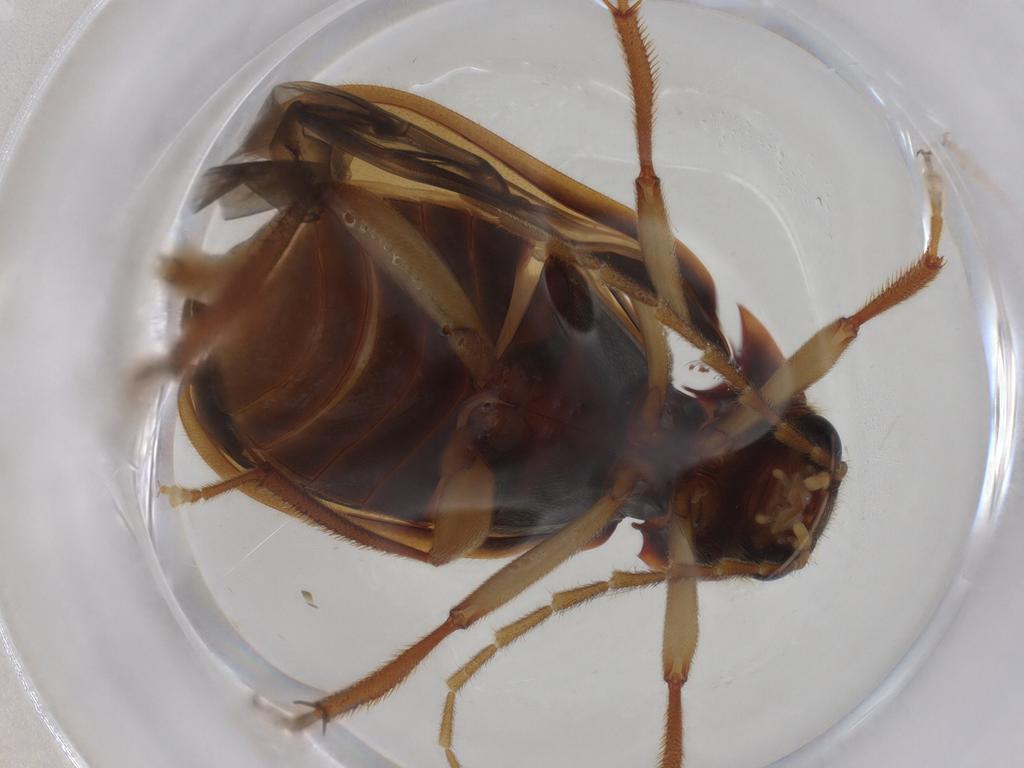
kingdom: Animalia
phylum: Arthropoda
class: Insecta
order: Coleoptera
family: Ptilodactylidae
